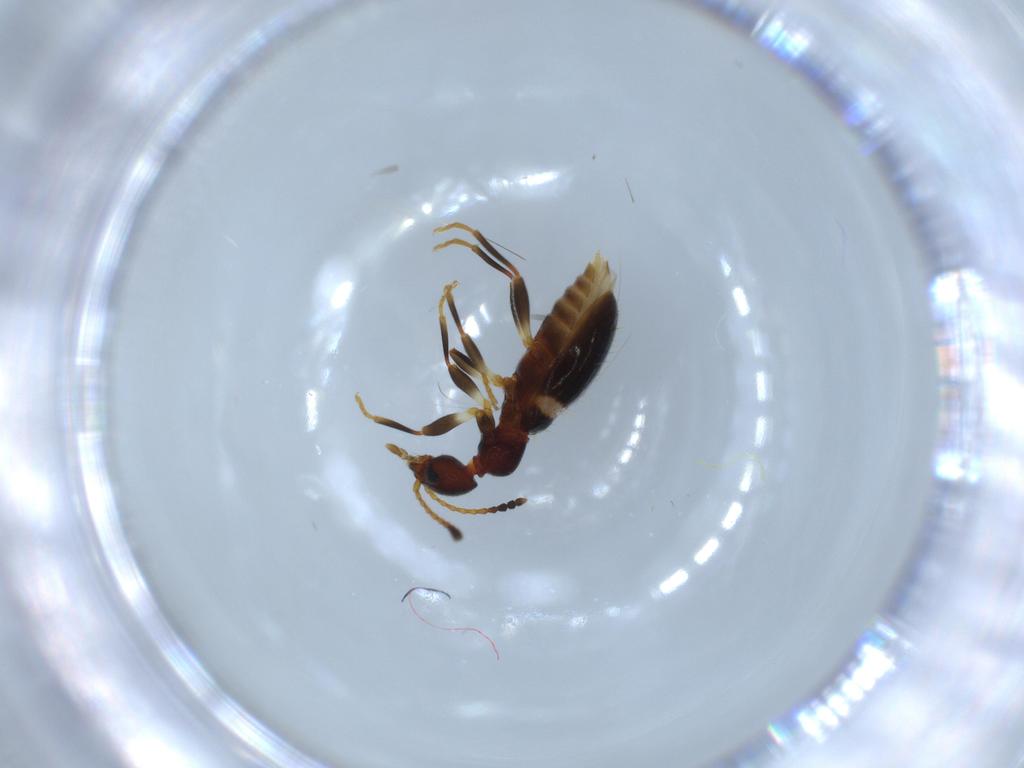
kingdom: Animalia
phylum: Arthropoda
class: Insecta
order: Coleoptera
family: Anthicidae
